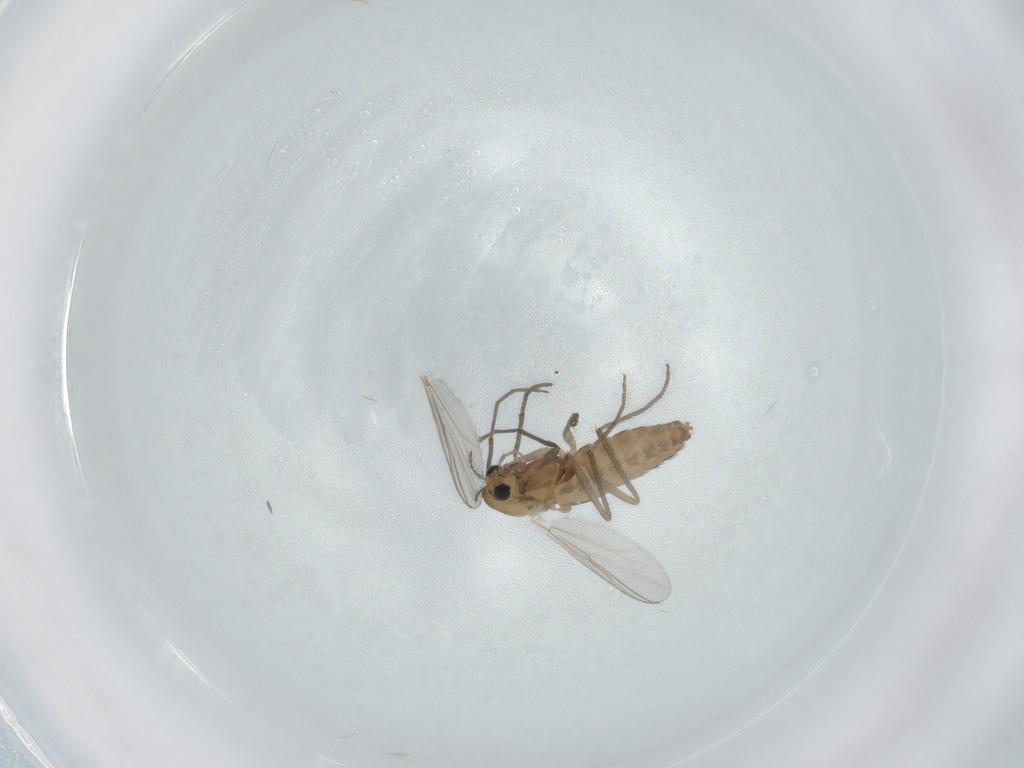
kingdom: Animalia
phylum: Arthropoda
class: Insecta
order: Diptera
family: Chironomidae
